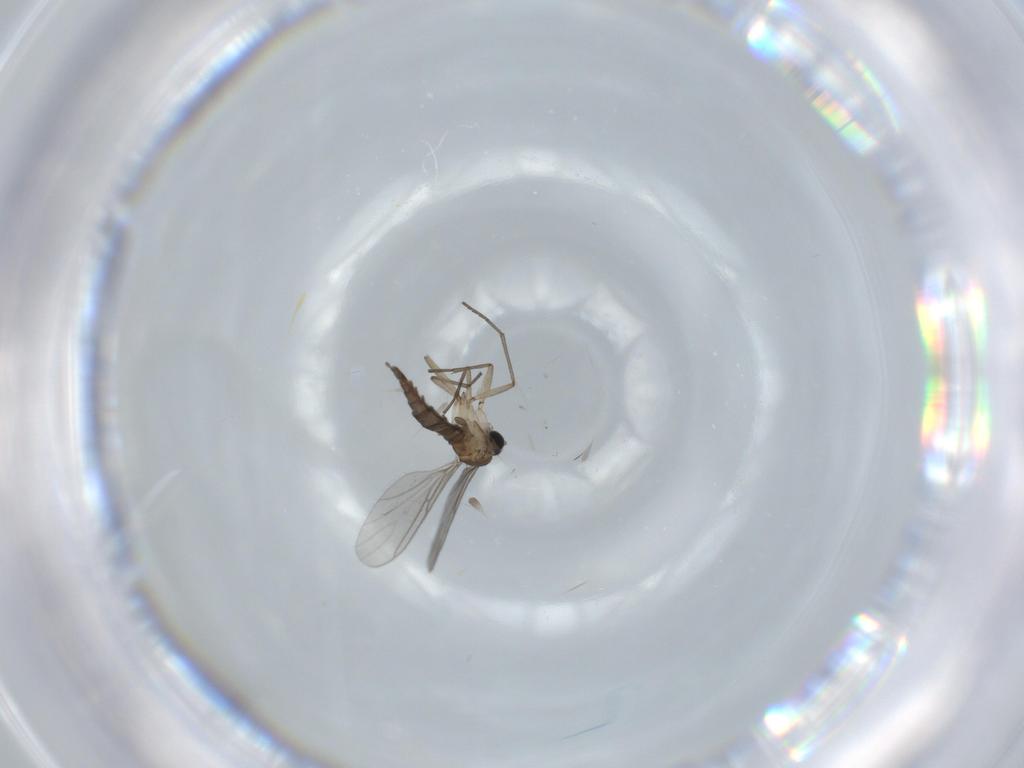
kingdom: Animalia
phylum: Arthropoda
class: Insecta
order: Diptera
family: Sciaridae
